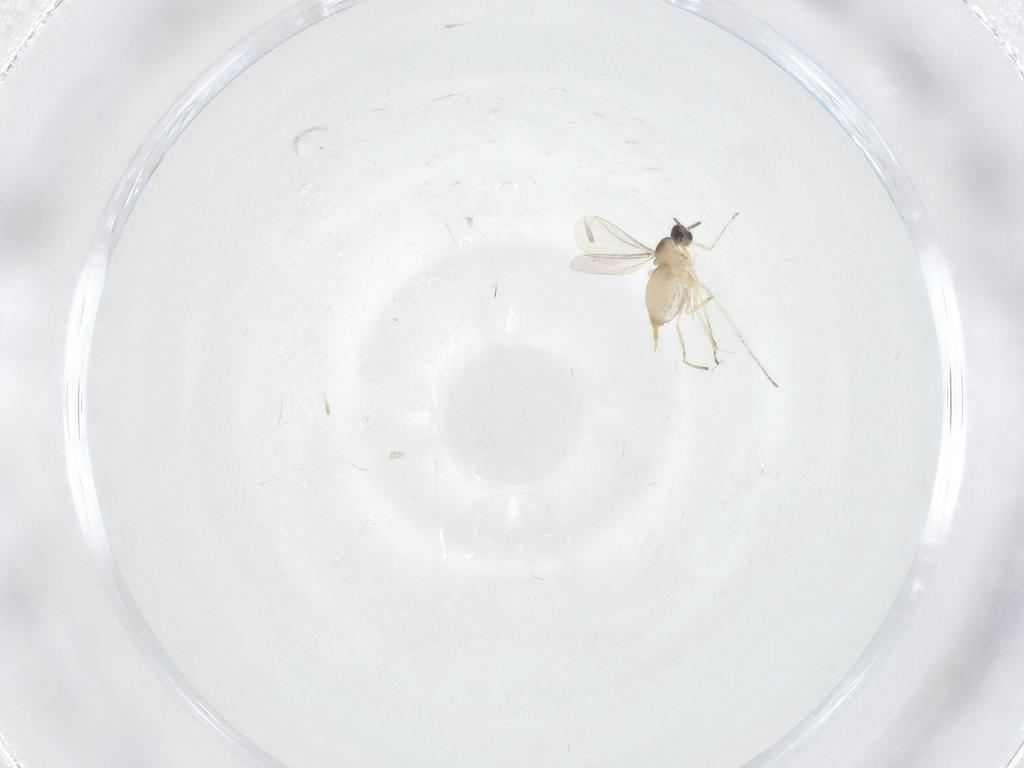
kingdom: Animalia
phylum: Arthropoda
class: Insecta
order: Diptera
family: Cecidomyiidae
